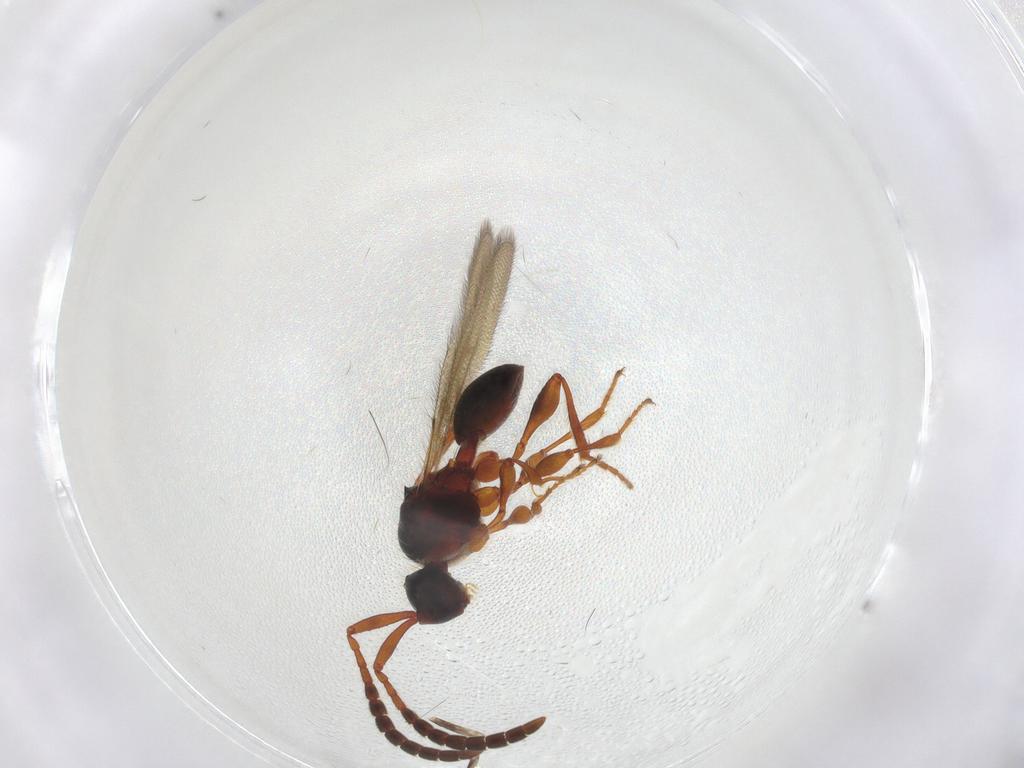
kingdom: Animalia
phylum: Arthropoda
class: Insecta
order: Hymenoptera
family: Diapriidae
